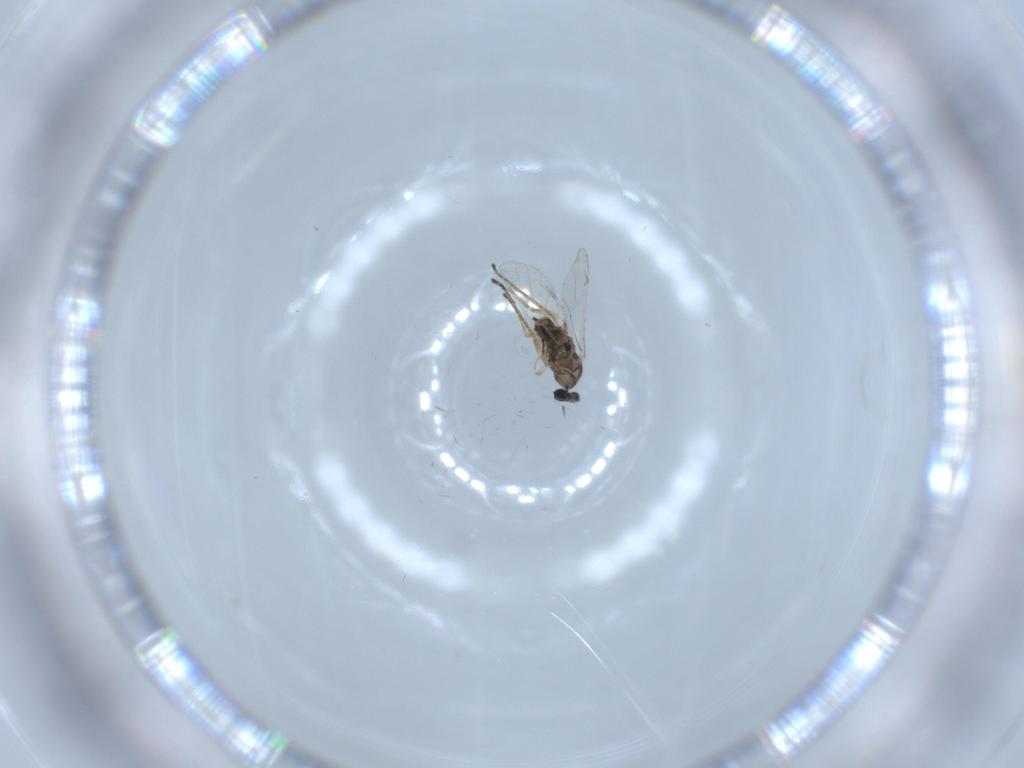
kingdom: Animalia
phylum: Arthropoda
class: Insecta
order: Diptera
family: Cecidomyiidae
